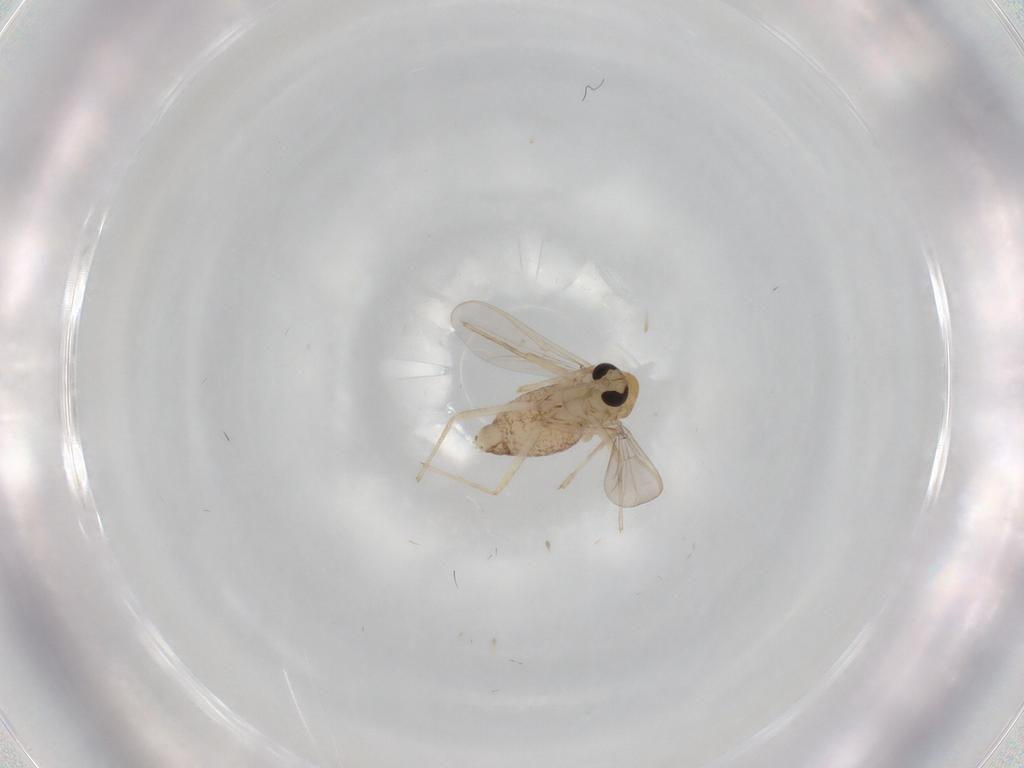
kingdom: Animalia
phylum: Arthropoda
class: Insecta
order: Diptera
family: Chironomidae
